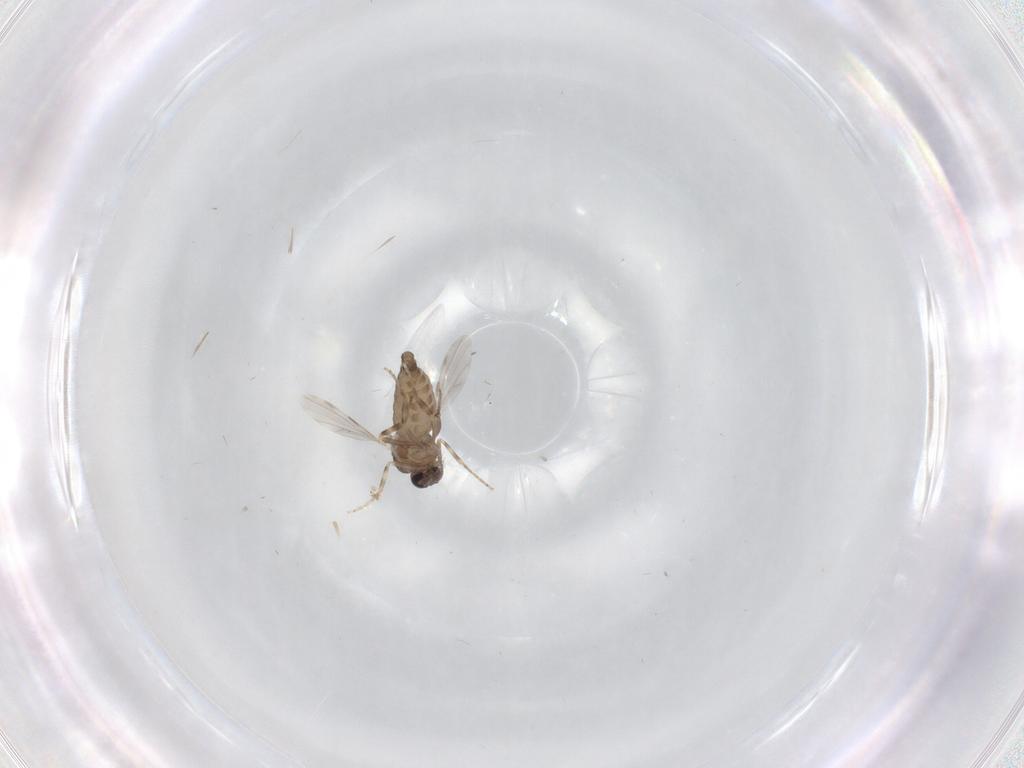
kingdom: Animalia
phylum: Arthropoda
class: Insecta
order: Diptera
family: Ceratopogonidae
